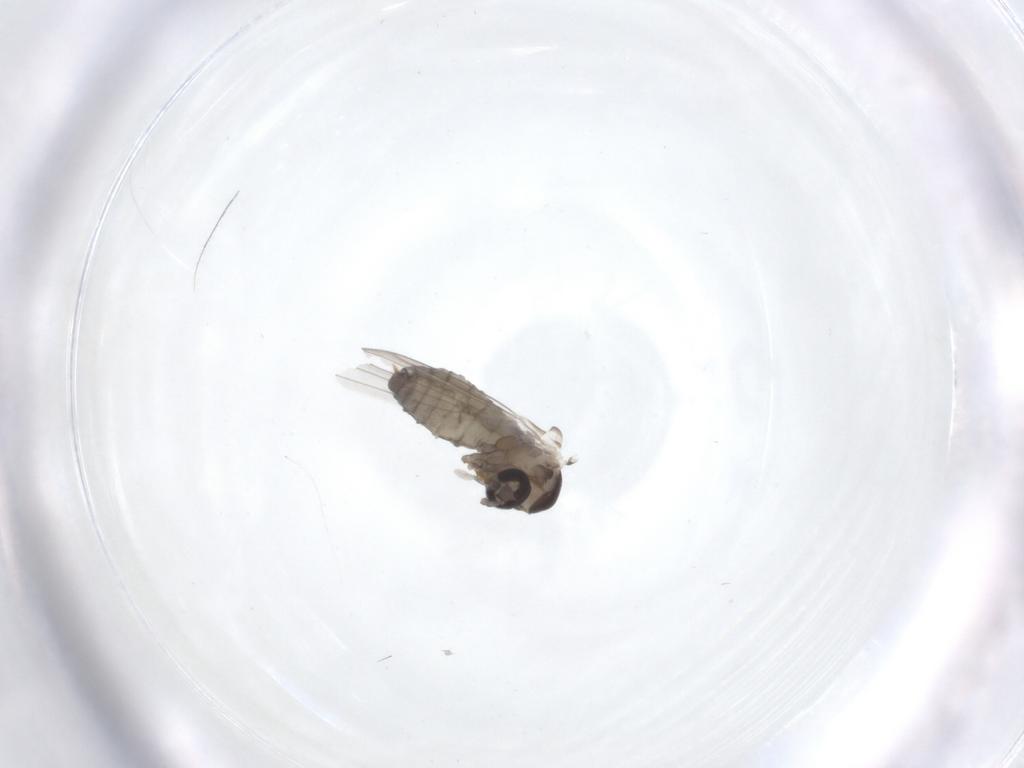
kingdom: Animalia
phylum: Arthropoda
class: Insecta
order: Diptera
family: Psychodidae
